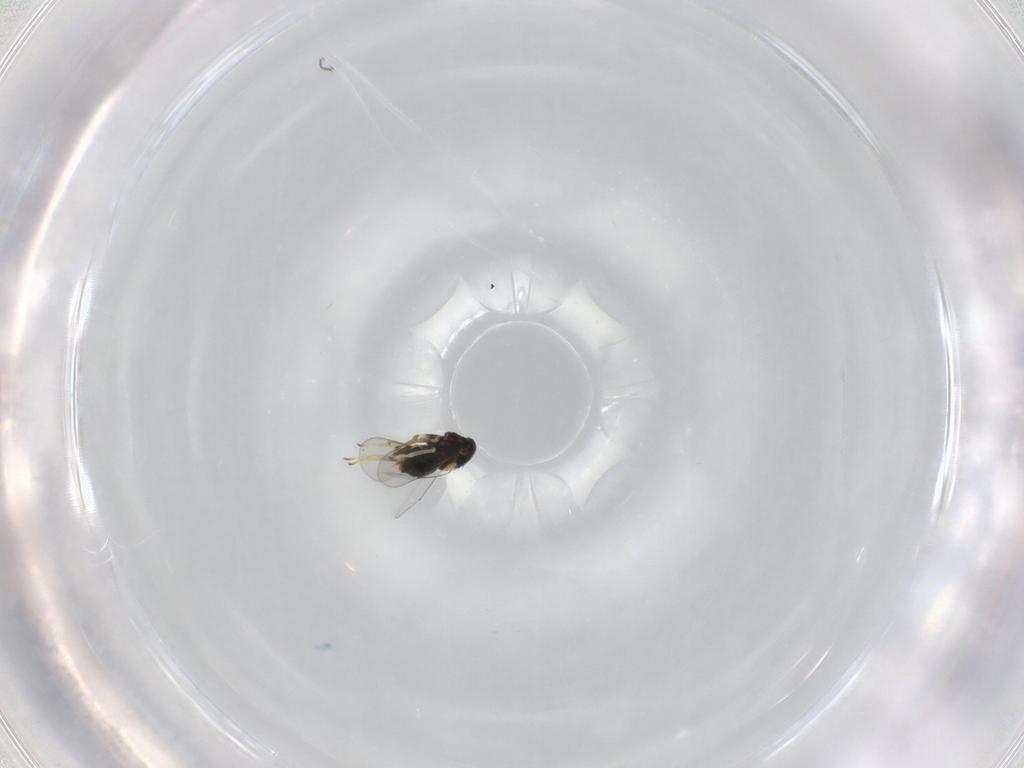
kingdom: Animalia
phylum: Arthropoda
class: Insecta
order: Hymenoptera
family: Aphelinidae
